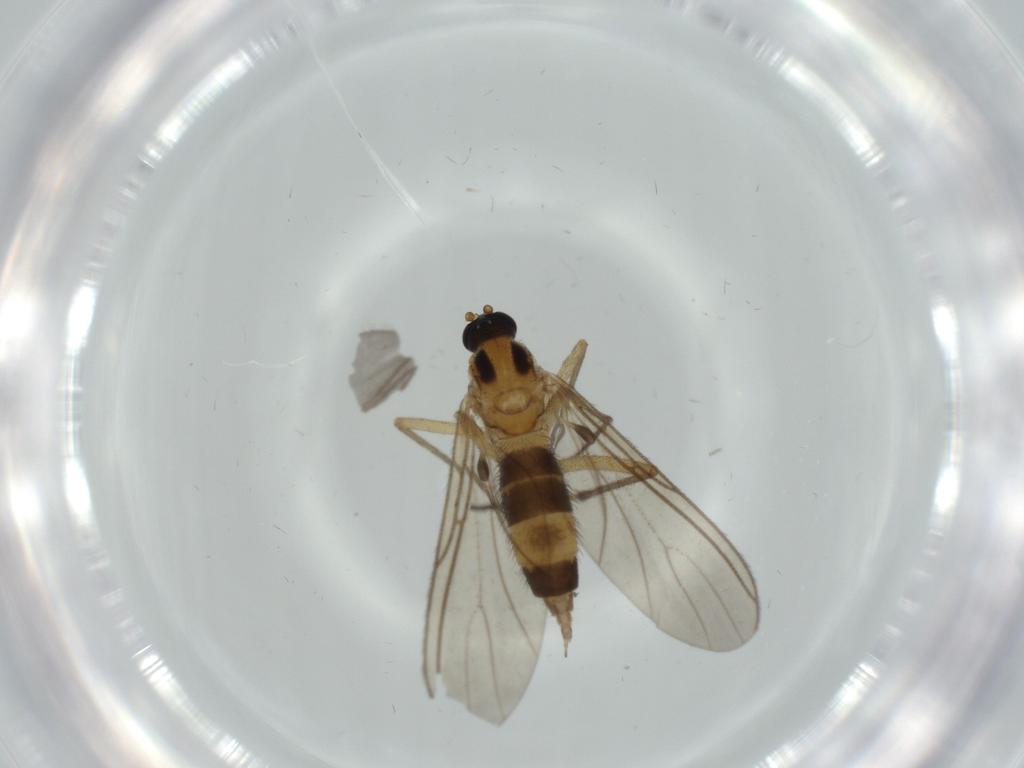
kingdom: Animalia
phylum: Arthropoda
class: Insecta
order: Diptera
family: Sciaridae
